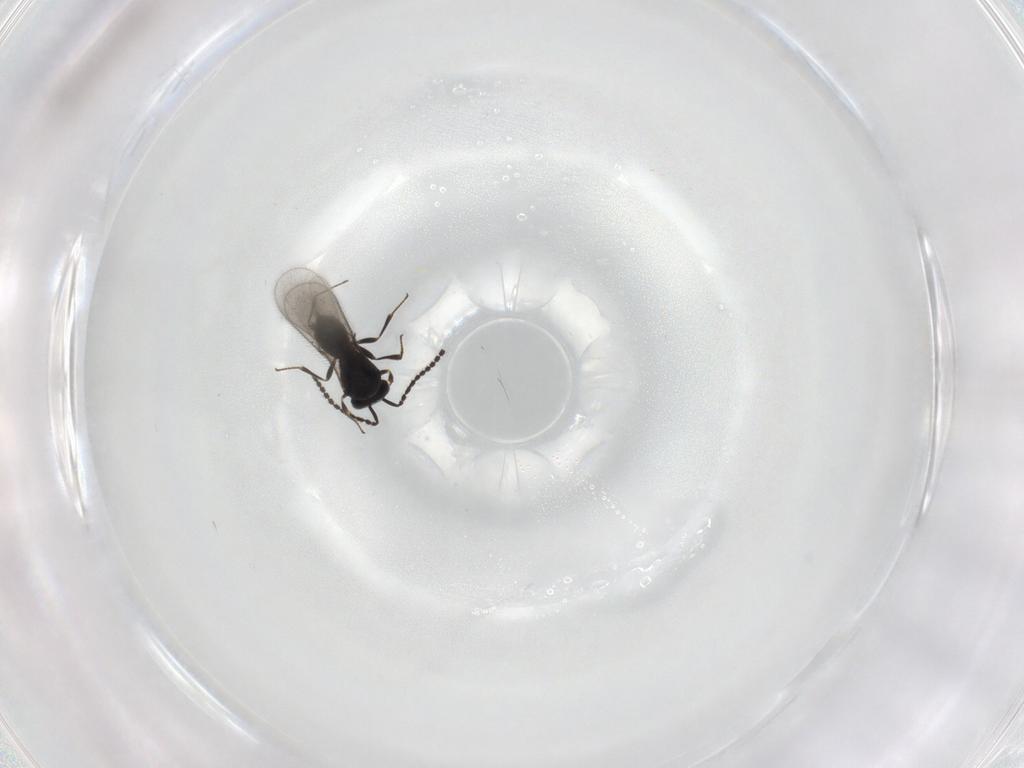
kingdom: Animalia
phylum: Arthropoda
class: Insecta
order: Hymenoptera
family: Scelionidae
